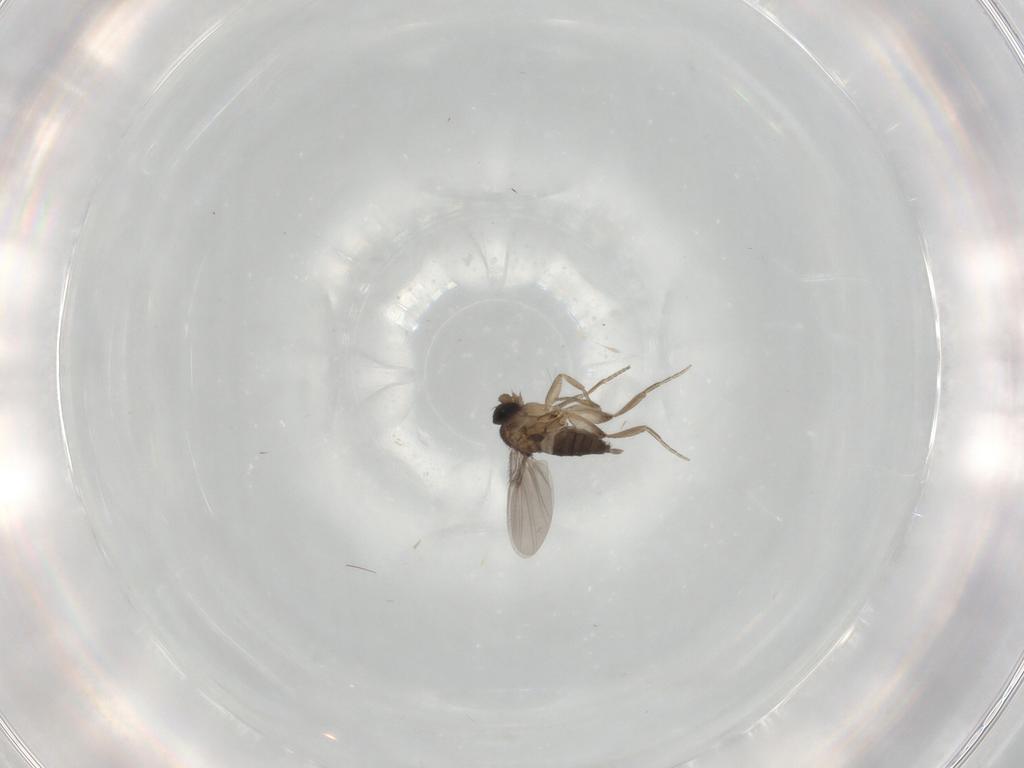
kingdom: Animalia
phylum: Arthropoda
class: Insecta
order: Diptera
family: Phoridae
